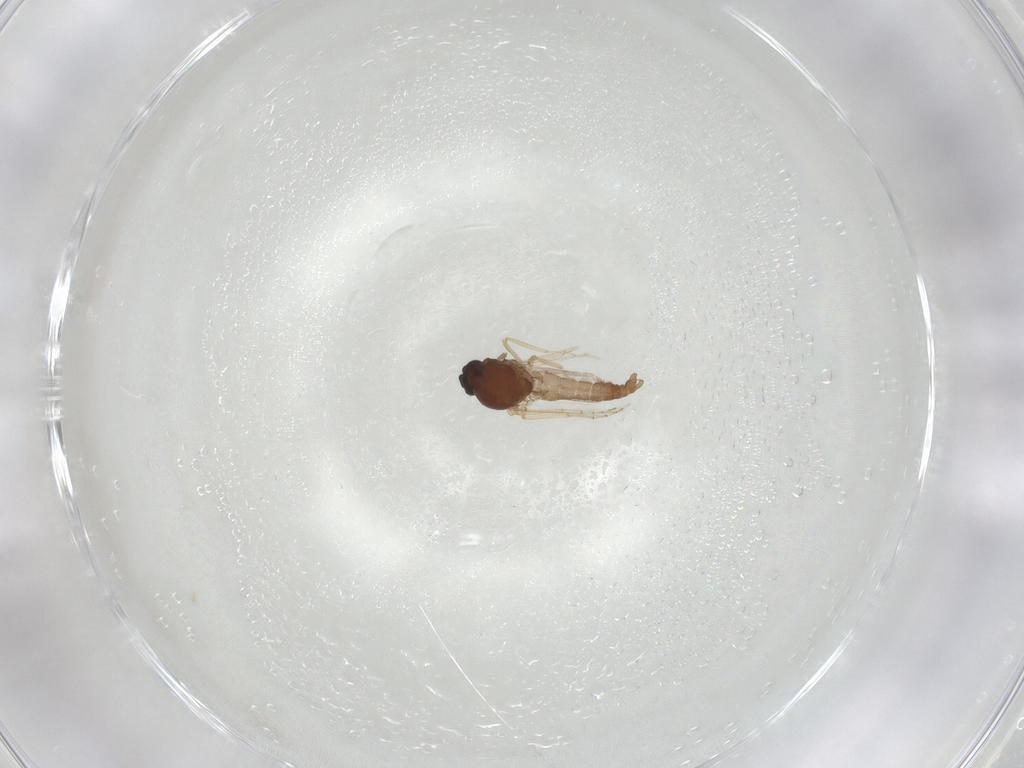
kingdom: Animalia
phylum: Arthropoda
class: Insecta
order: Diptera
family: Ceratopogonidae
